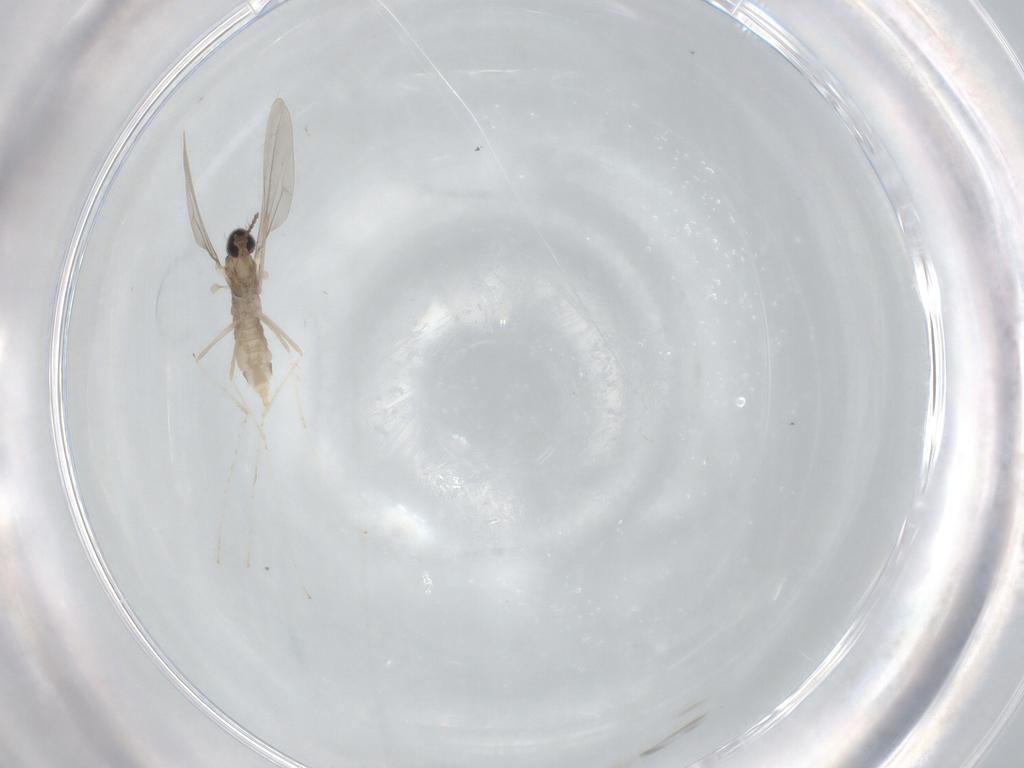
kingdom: Animalia
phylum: Arthropoda
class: Insecta
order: Diptera
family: Cecidomyiidae
